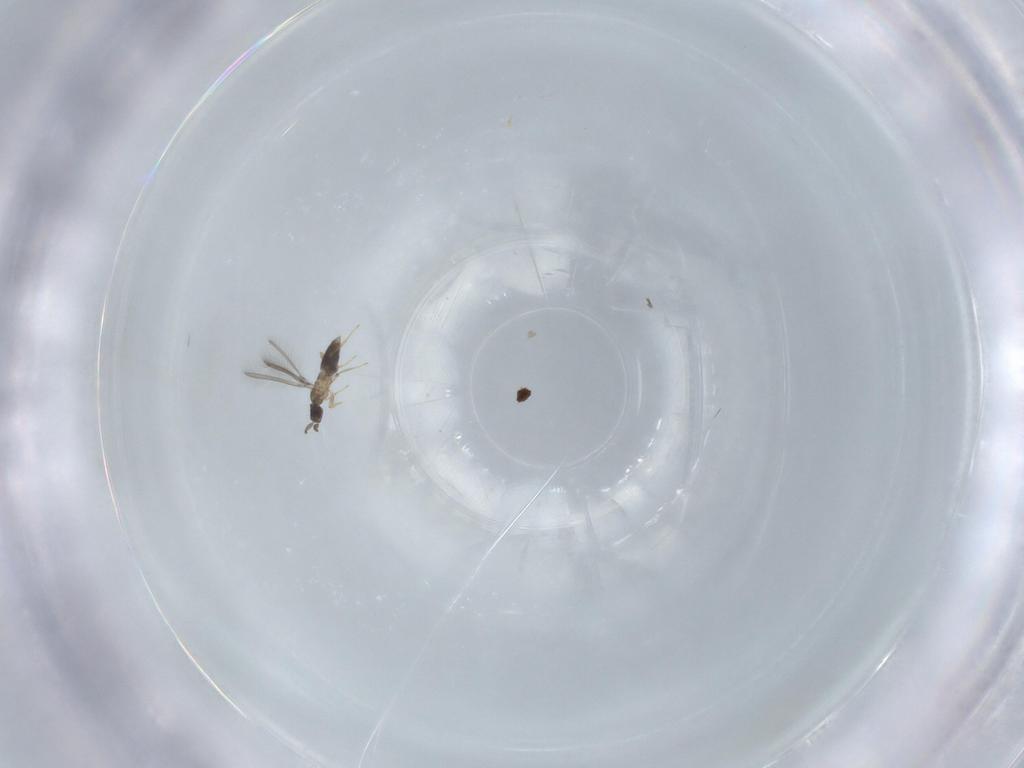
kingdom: Animalia
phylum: Arthropoda
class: Insecta
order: Hymenoptera
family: Mymaridae
